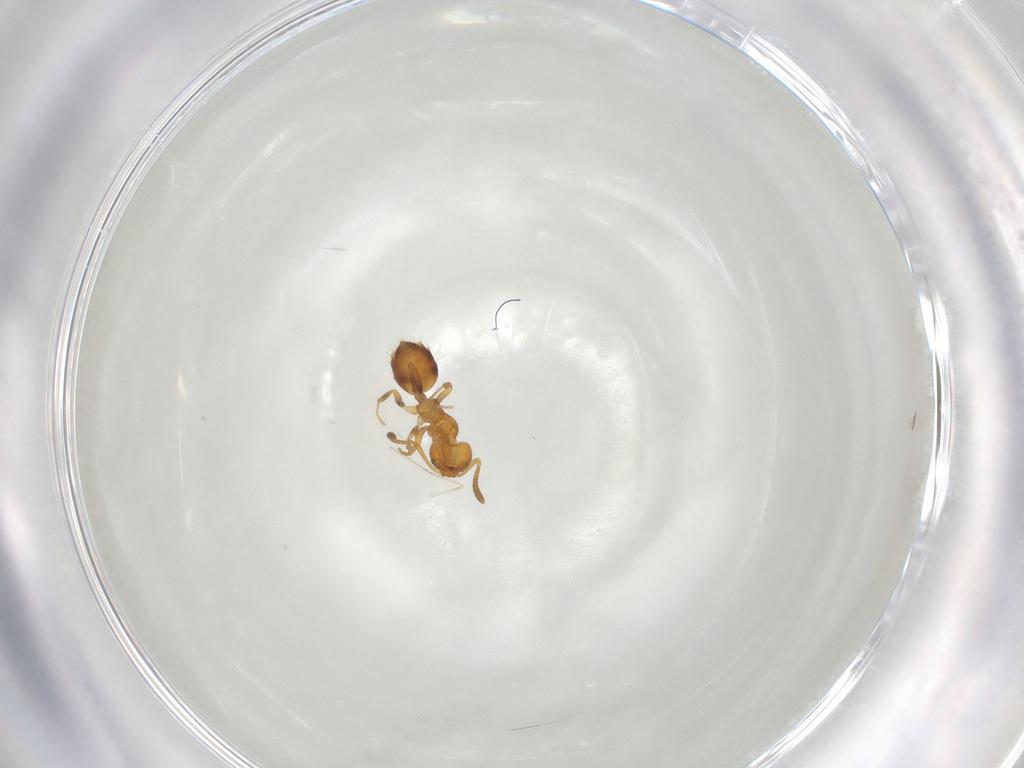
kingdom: Animalia
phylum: Arthropoda
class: Insecta
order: Hymenoptera
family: Formicidae
